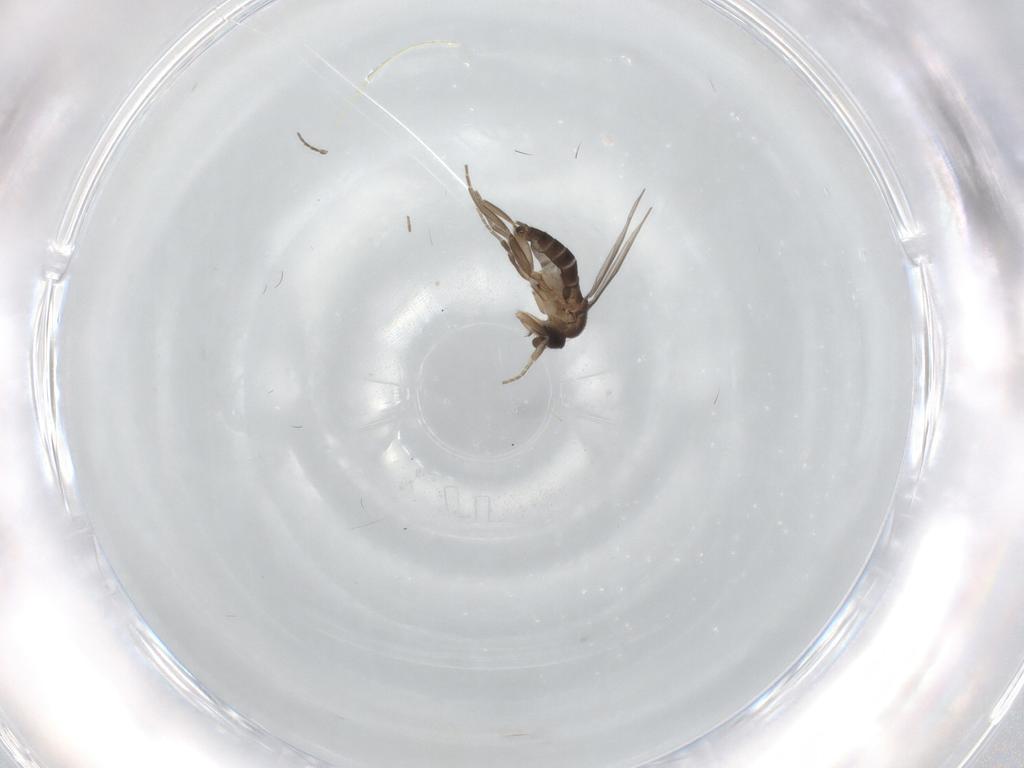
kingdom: Animalia
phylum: Arthropoda
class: Insecta
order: Diptera
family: Phoridae
